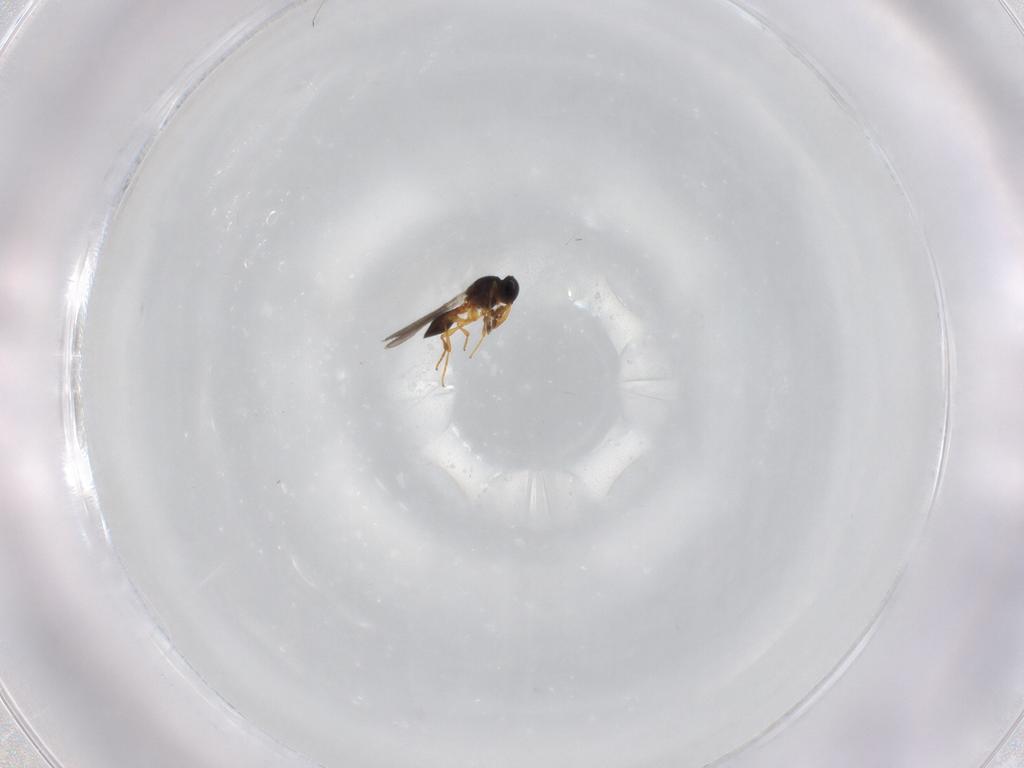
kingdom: Animalia
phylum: Arthropoda
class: Insecta
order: Hymenoptera
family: Platygastridae
